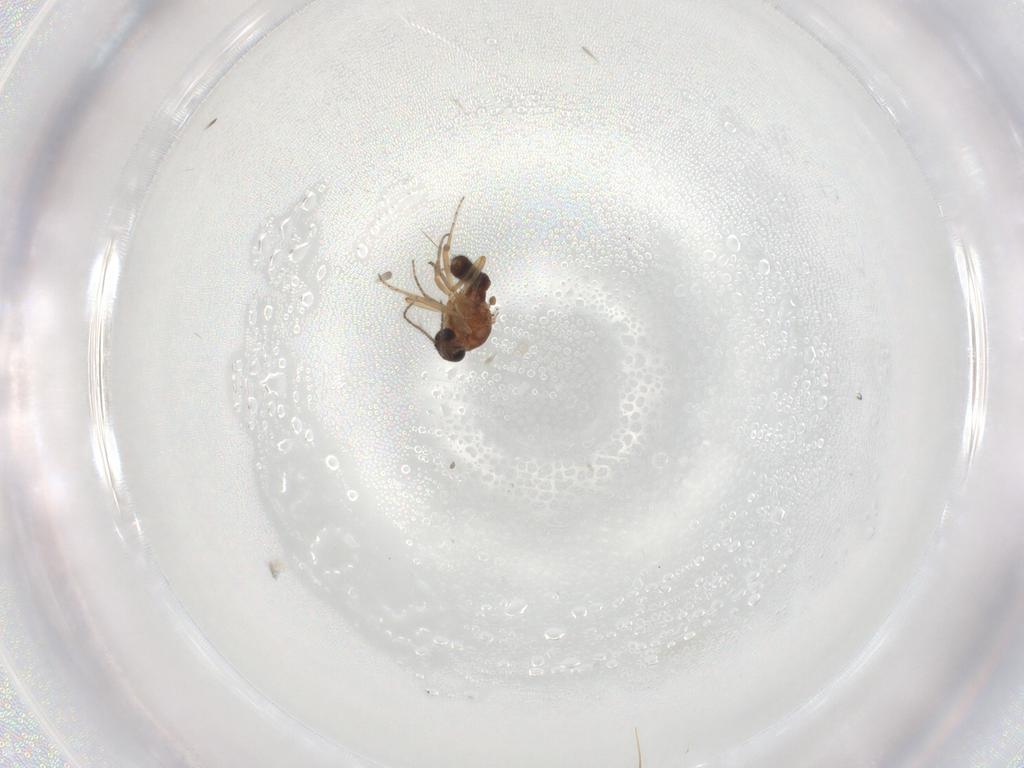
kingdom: Animalia
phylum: Arthropoda
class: Insecta
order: Diptera
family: Ceratopogonidae
